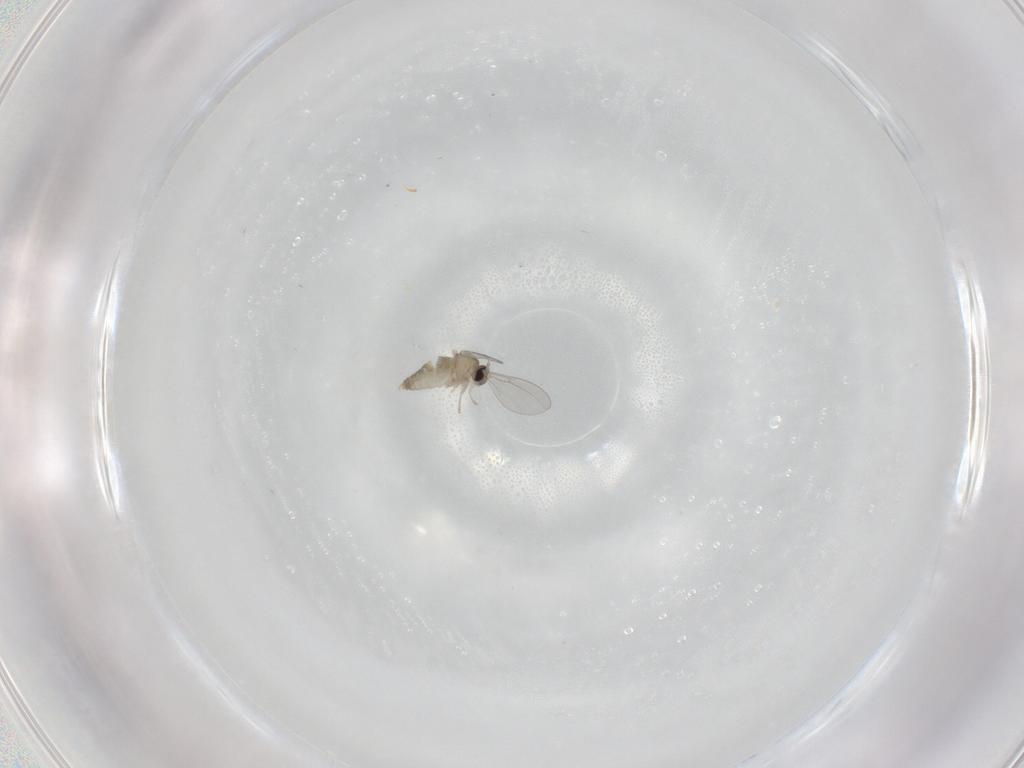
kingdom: Animalia
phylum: Arthropoda
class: Insecta
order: Diptera
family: Cecidomyiidae
